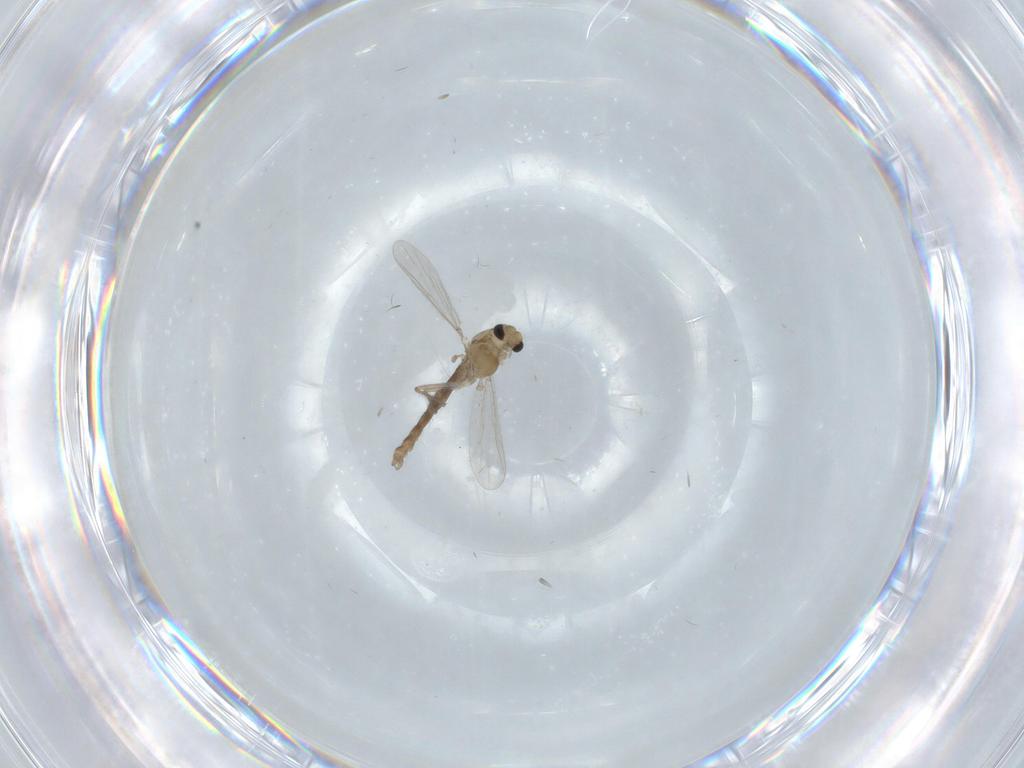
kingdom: Animalia
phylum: Arthropoda
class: Insecta
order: Diptera
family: Chironomidae
